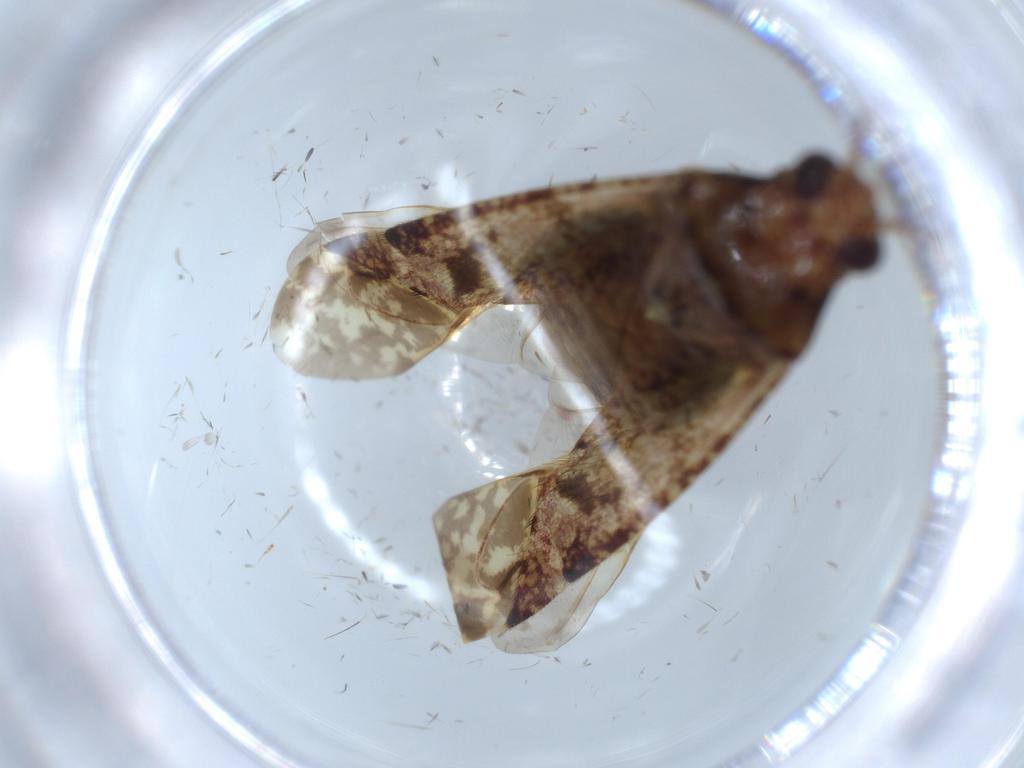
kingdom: Animalia
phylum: Arthropoda
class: Insecta
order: Hemiptera
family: Miridae
